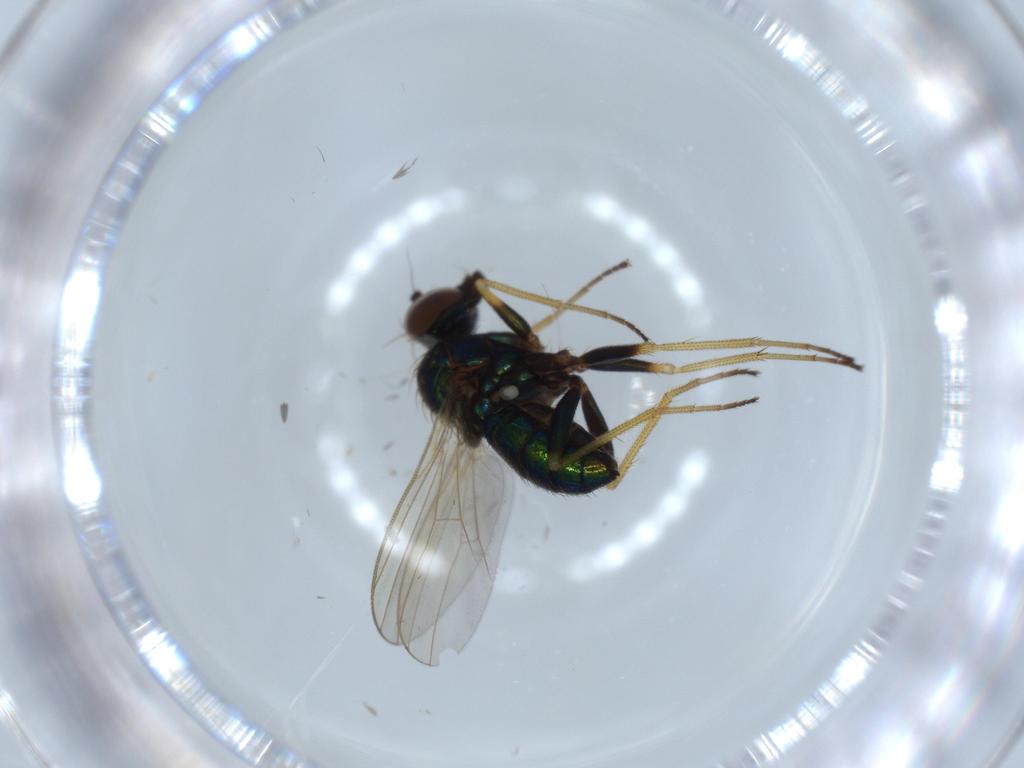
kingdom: Animalia
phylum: Arthropoda
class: Insecta
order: Diptera
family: Dolichopodidae
